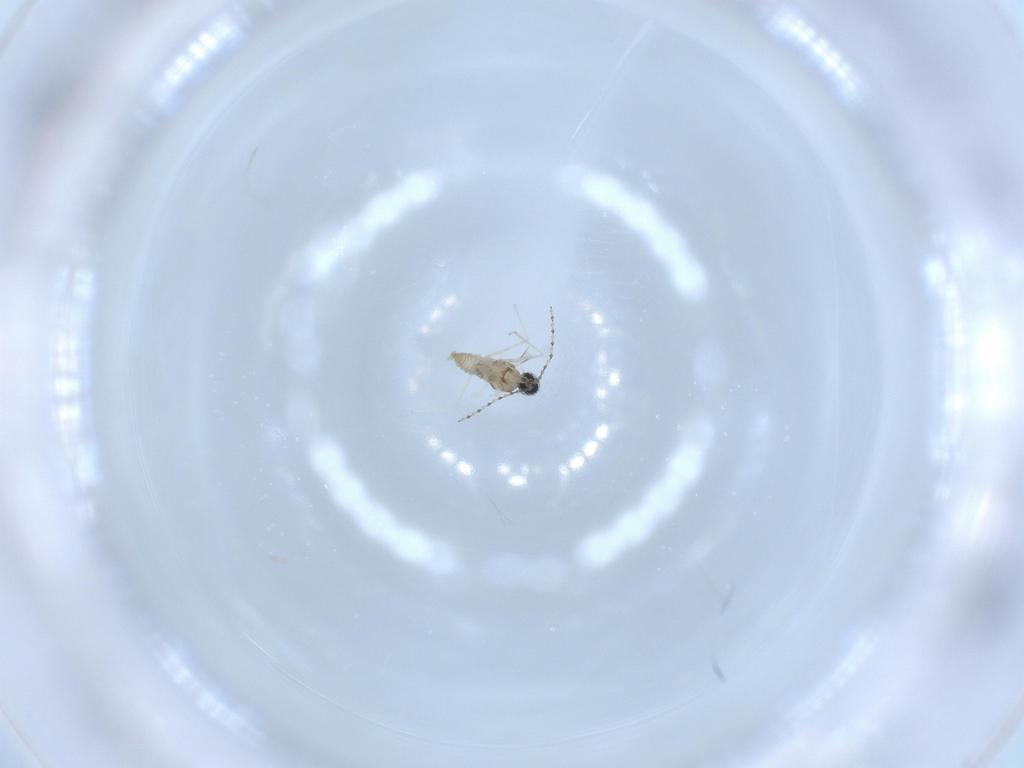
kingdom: Animalia
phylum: Arthropoda
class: Insecta
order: Diptera
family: Cecidomyiidae
